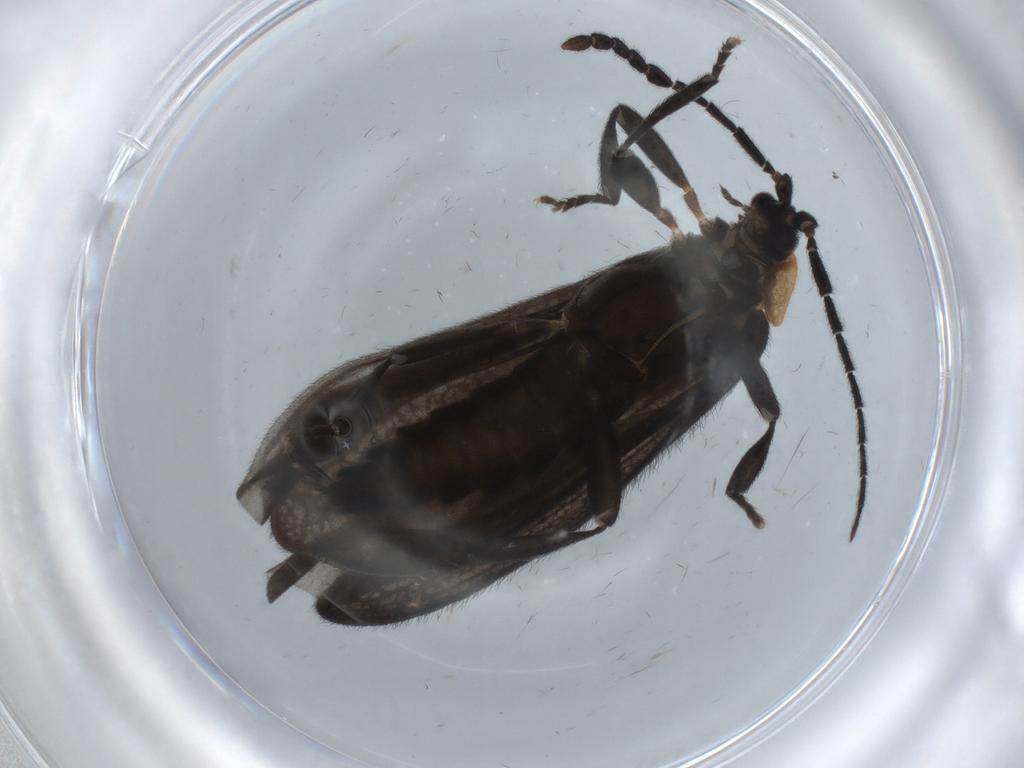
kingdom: Animalia
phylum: Arthropoda
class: Insecta
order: Coleoptera
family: Lycidae
